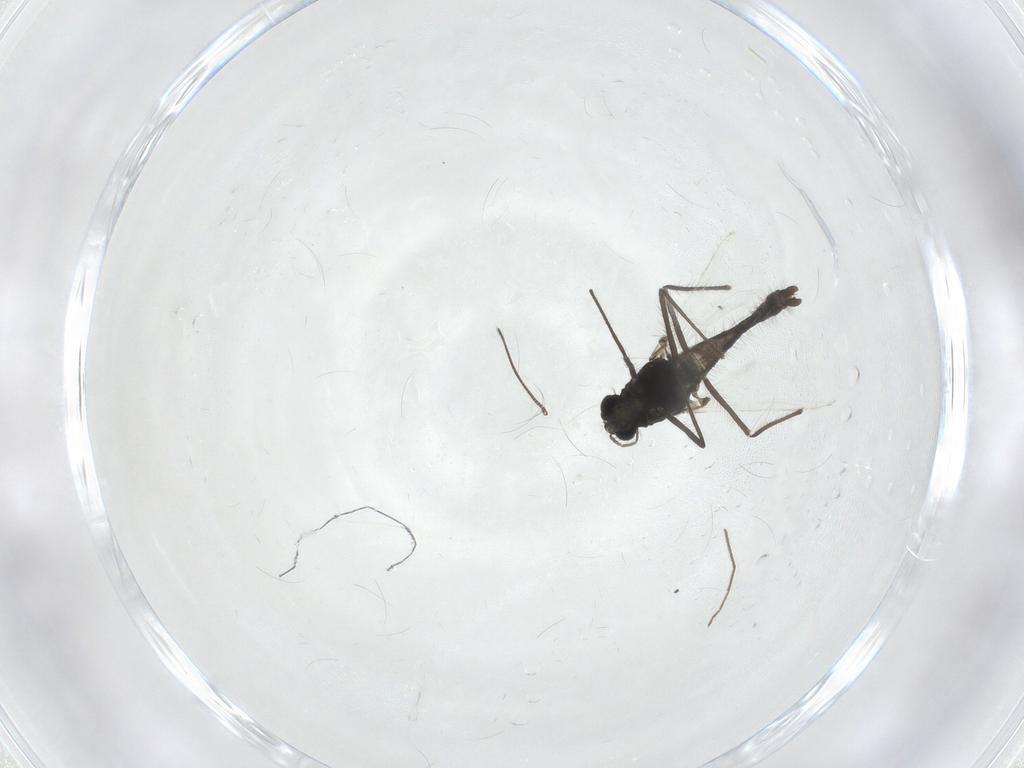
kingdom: Animalia
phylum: Arthropoda
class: Insecta
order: Diptera
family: Chironomidae
